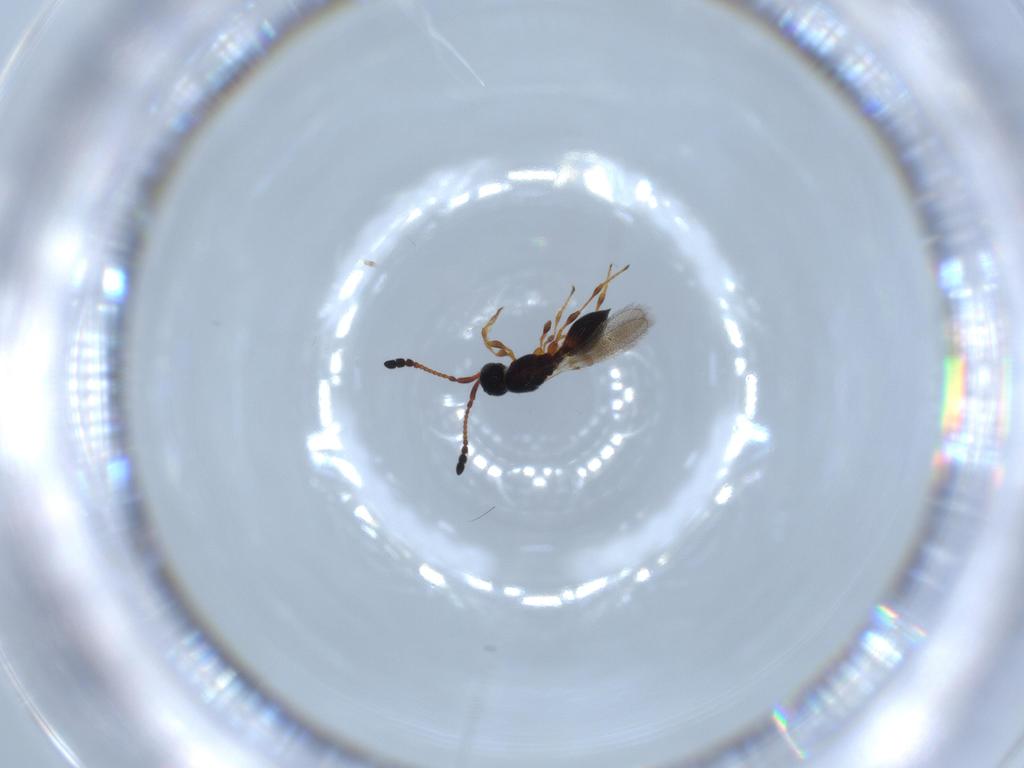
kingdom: Animalia
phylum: Arthropoda
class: Insecta
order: Hymenoptera
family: Diapriidae
